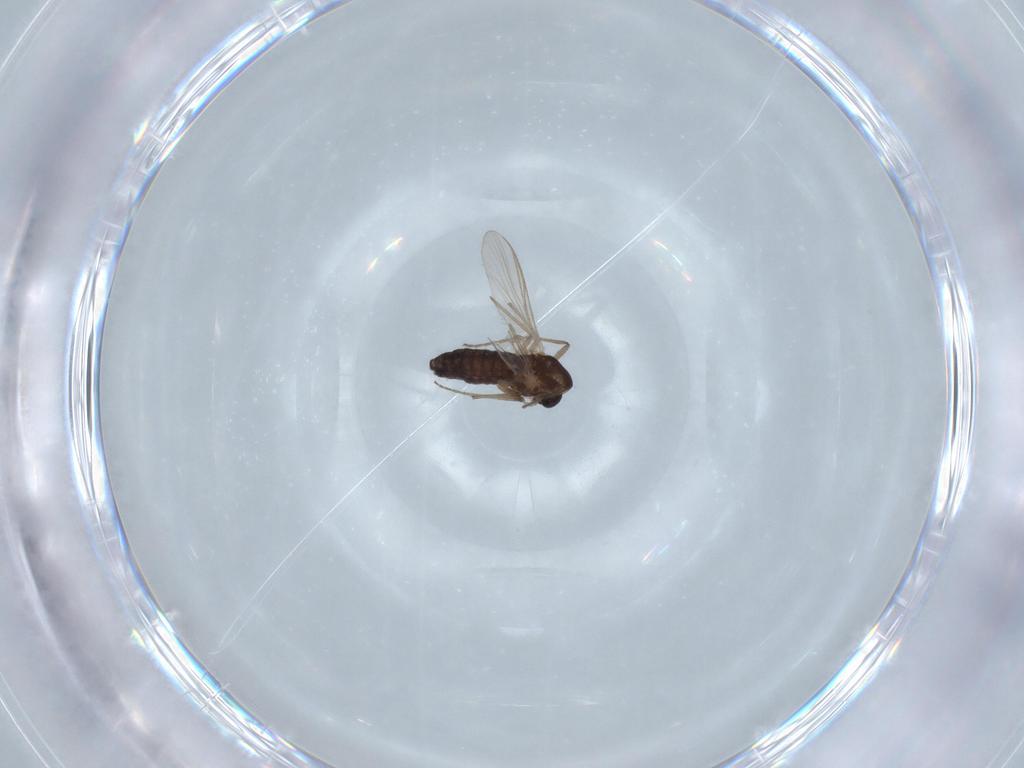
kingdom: Animalia
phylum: Arthropoda
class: Insecta
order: Diptera
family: Chironomidae
